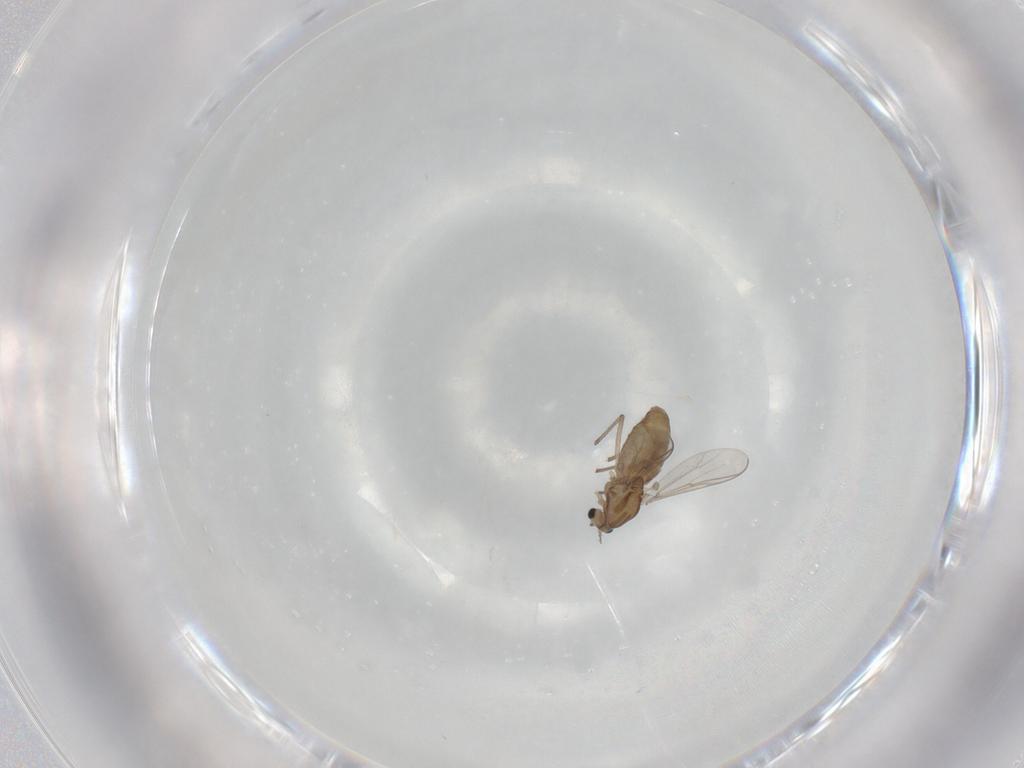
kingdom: Animalia
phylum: Arthropoda
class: Insecta
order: Diptera
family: Chironomidae
